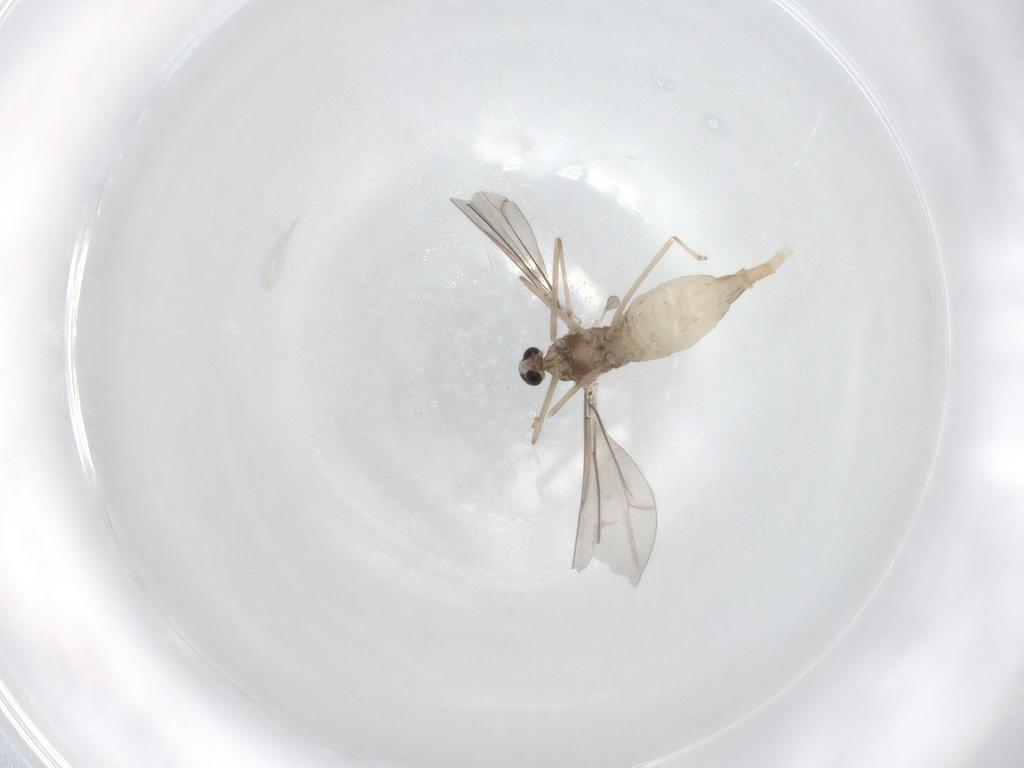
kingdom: Animalia
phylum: Arthropoda
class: Insecta
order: Diptera
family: Cecidomyiidae
